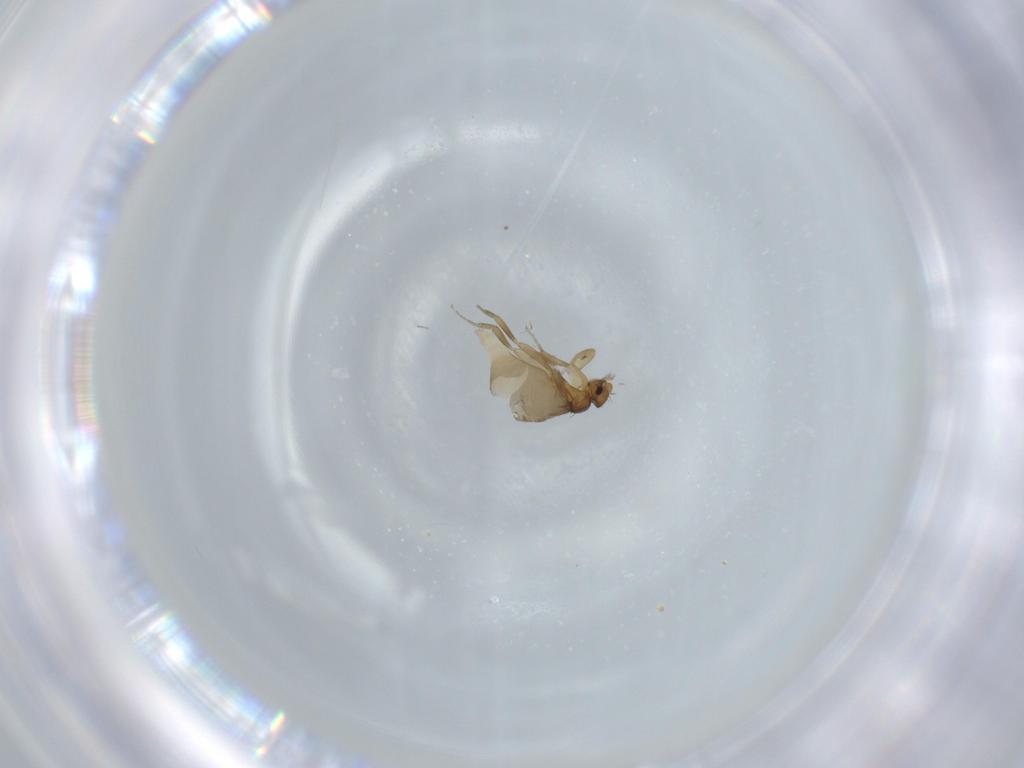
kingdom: Animalia
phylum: Arthropoda
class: Insecta
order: Diptera
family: Phoridae
